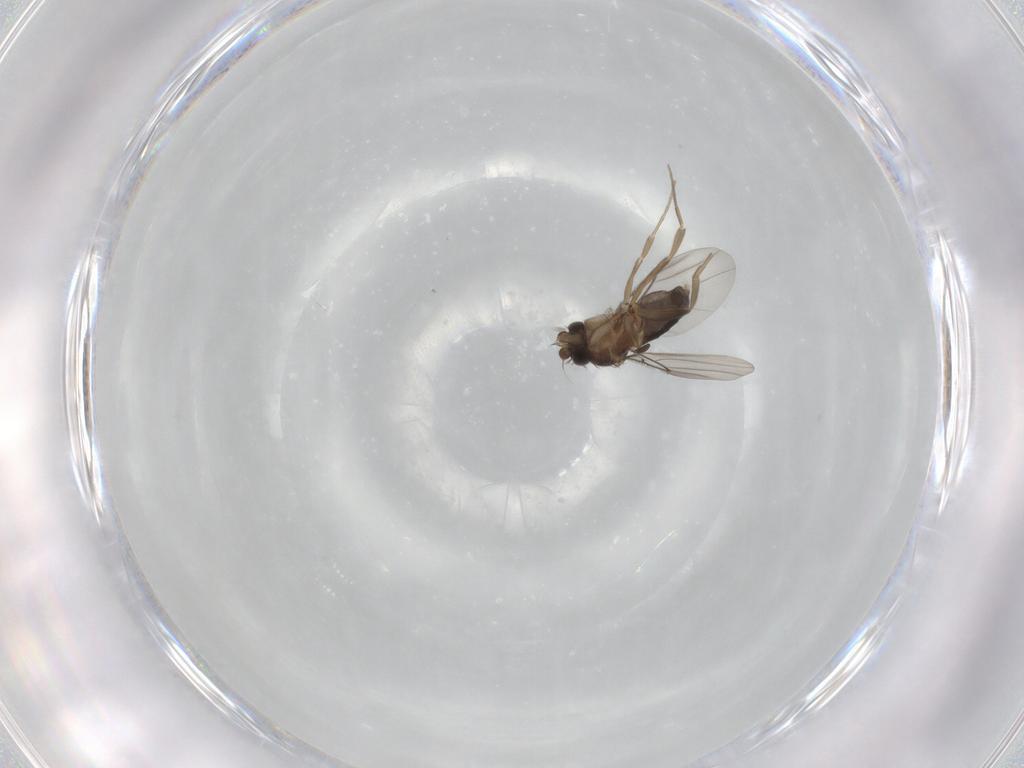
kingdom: Animalia
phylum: Arthropoda
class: Insecta
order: Diptera
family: Phoridae
